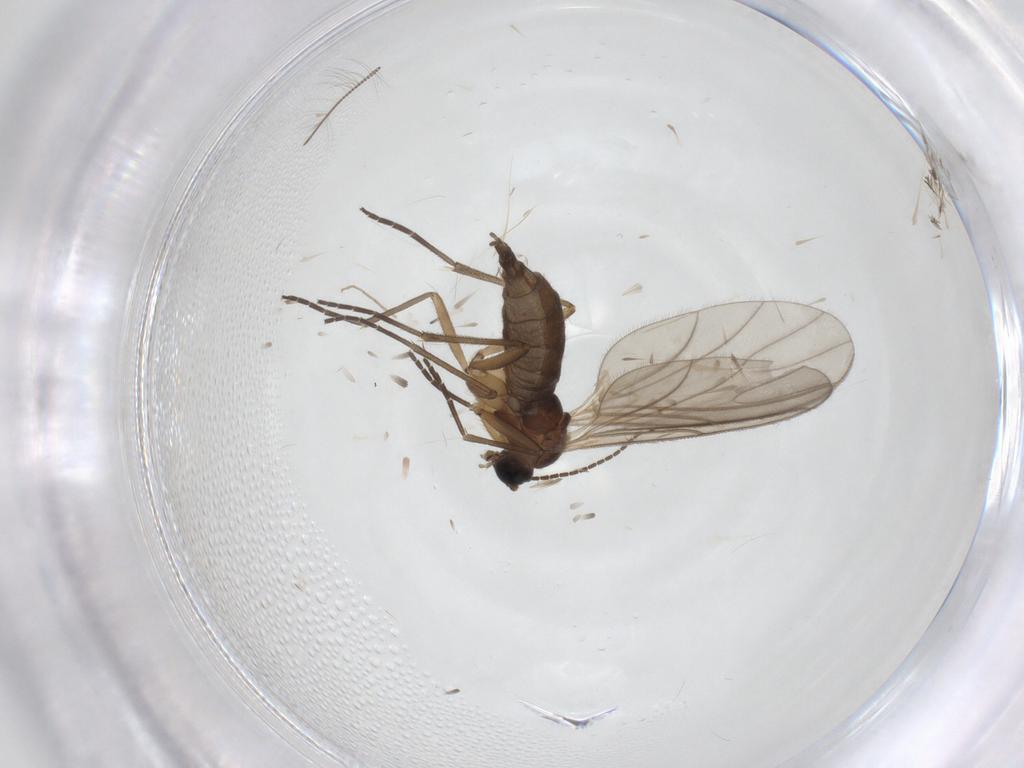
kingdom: Animalia
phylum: Arthropoda
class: Insecta
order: Diptera
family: Sciaridae
